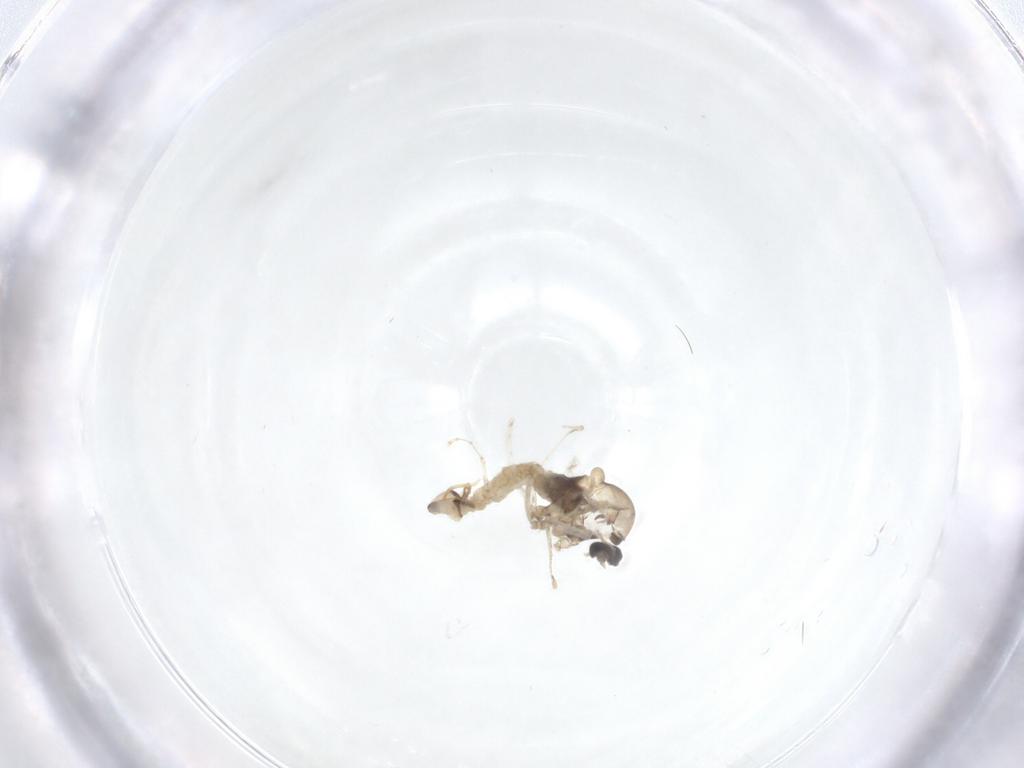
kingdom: Animalia
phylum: Arthropoda
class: Insecta
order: Diptera
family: Cecidomyiidae
